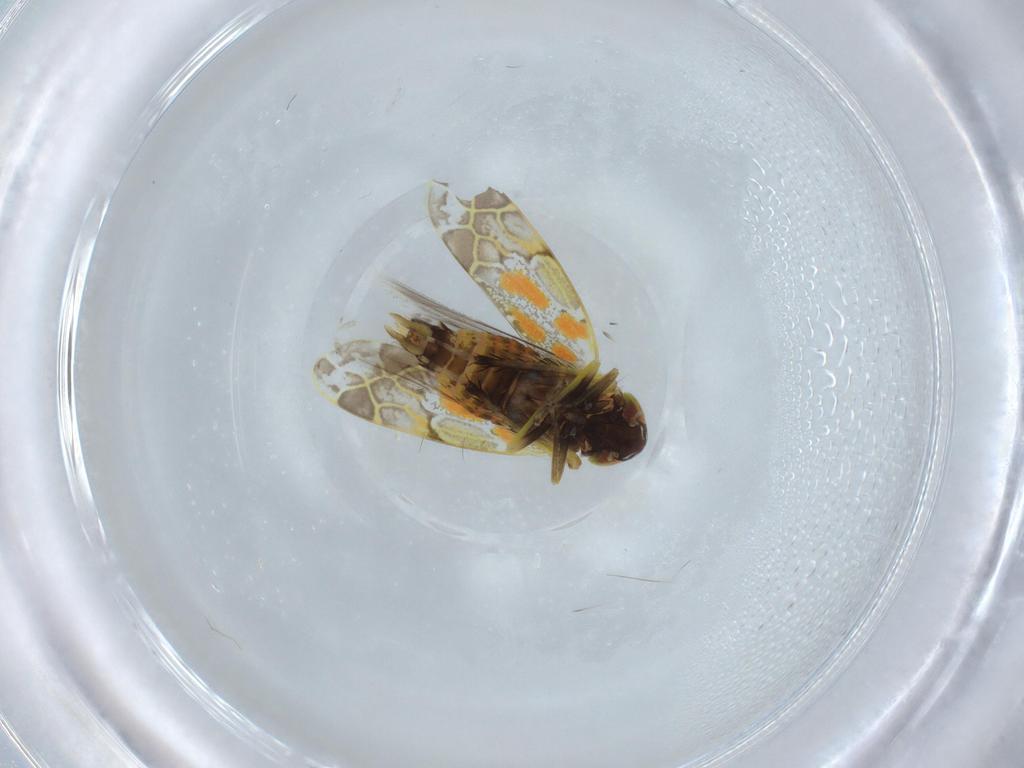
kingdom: Animalia
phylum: Arthropoda
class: Insecta
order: Hemiptera
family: Cicadellidae
